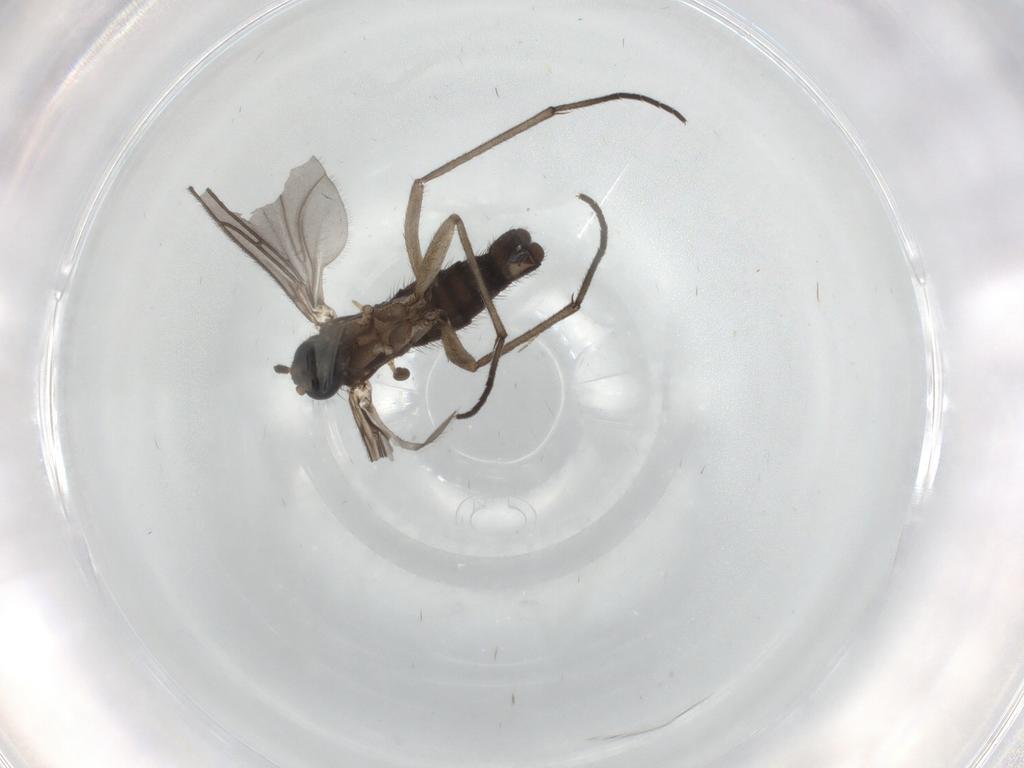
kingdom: Animalia
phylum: Arthropoda
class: Insecta
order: Diptera
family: Sciaridae
